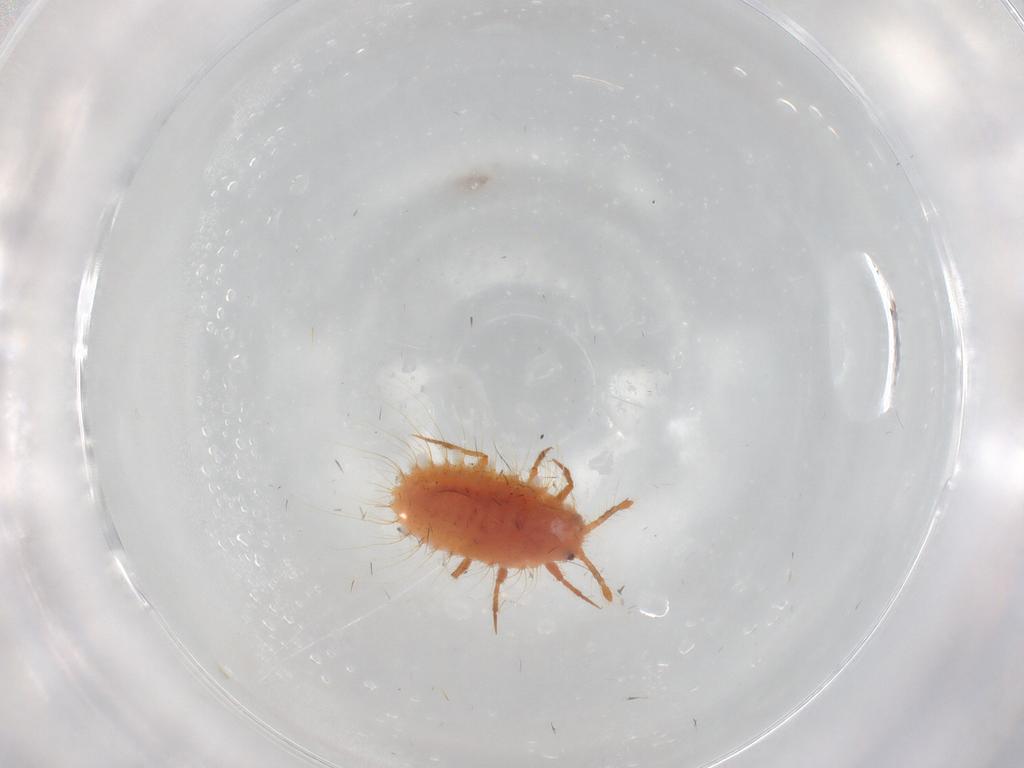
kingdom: Animalia
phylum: Arthropoda
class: Insecta
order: Hemiptera
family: Coccoidea_incertae_sedis
